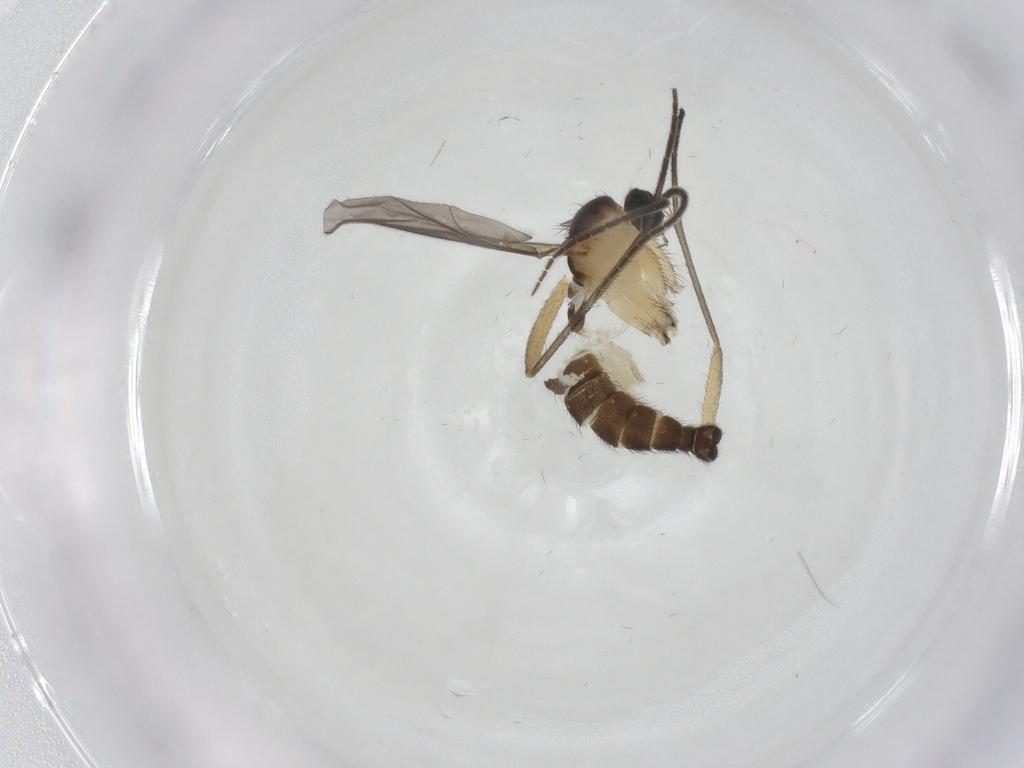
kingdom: Animalia
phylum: Arthropoda
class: Insecta
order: Diptera
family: Sciaridae
